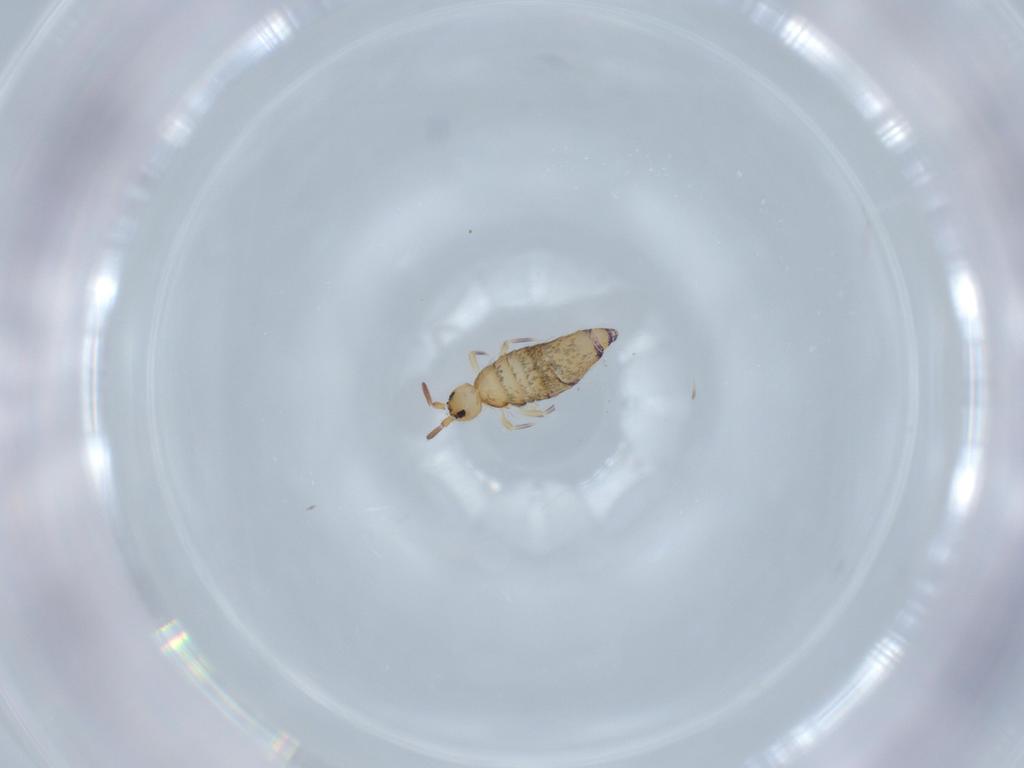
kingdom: Animalia
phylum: Arthropoda
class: Collembola
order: Entomobryomorpha
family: Entomobryidae
